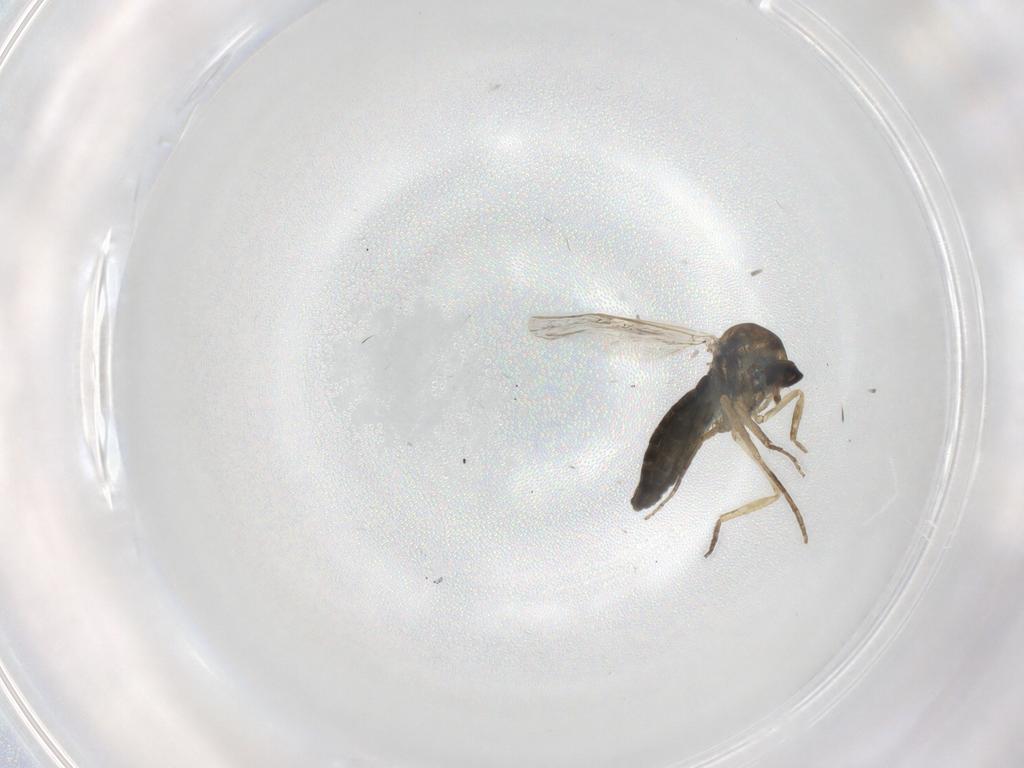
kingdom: Animalia
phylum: Arthropoda
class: Insecta
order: Diptera
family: Ceratopogonidae
